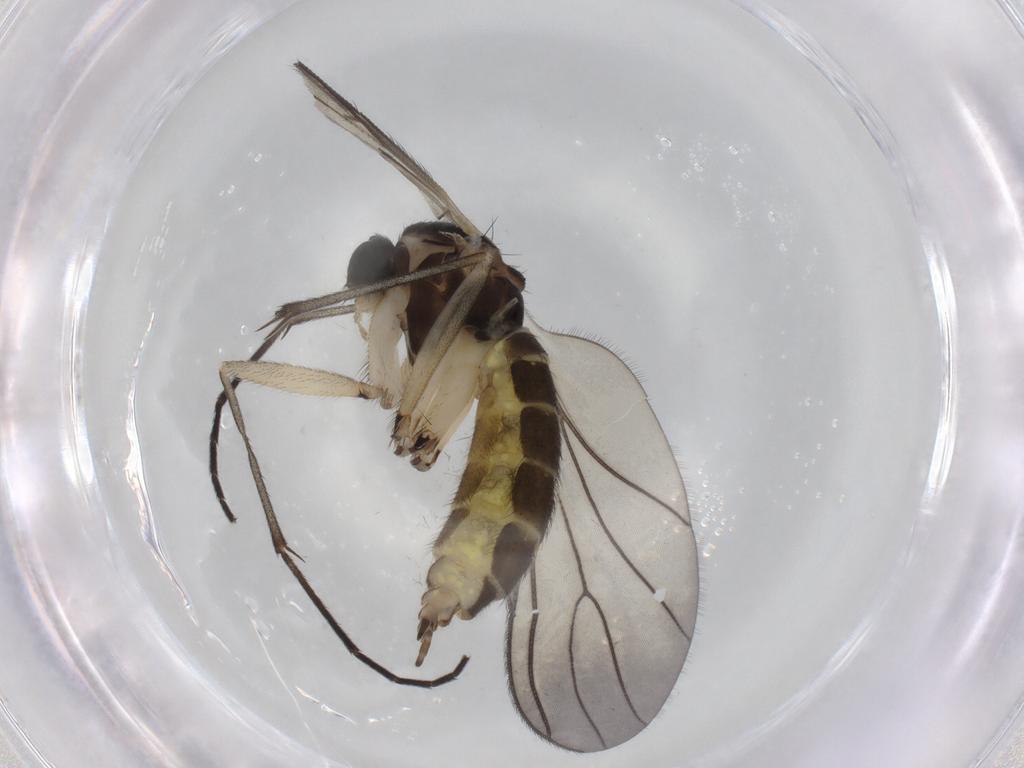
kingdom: Animalia
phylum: Arthropoda
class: Insecta
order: Diptera
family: Sciaridae
